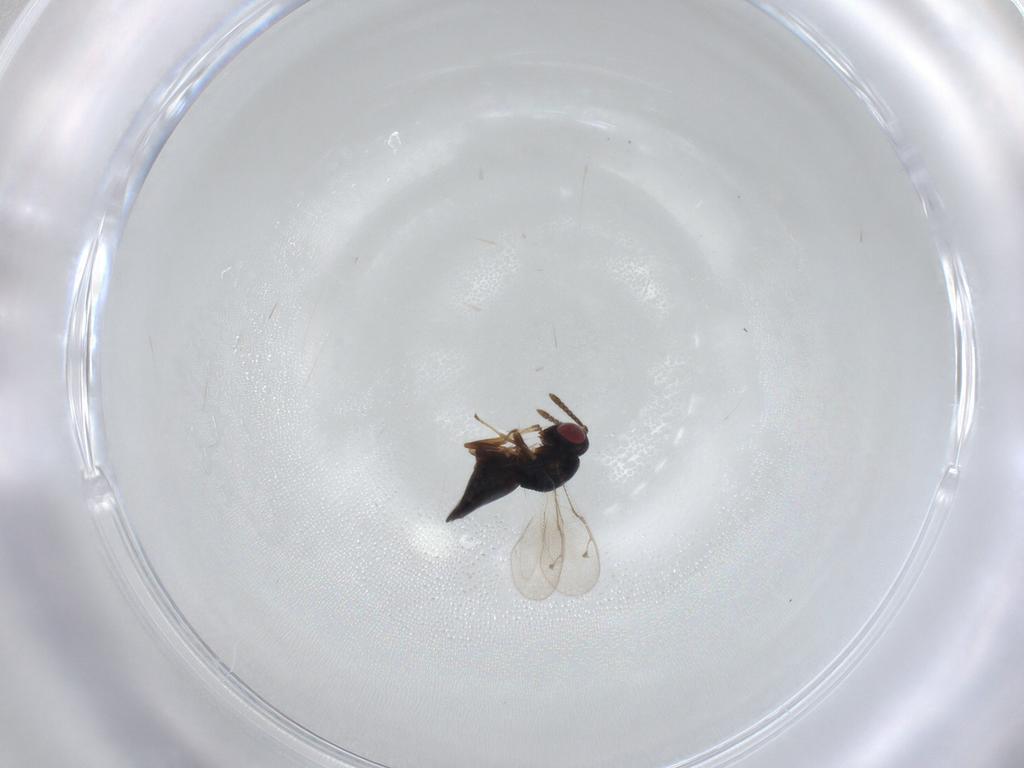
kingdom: Animalia
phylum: Arthropoda
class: Insecta
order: Hymenoptera
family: Pteromalidae
